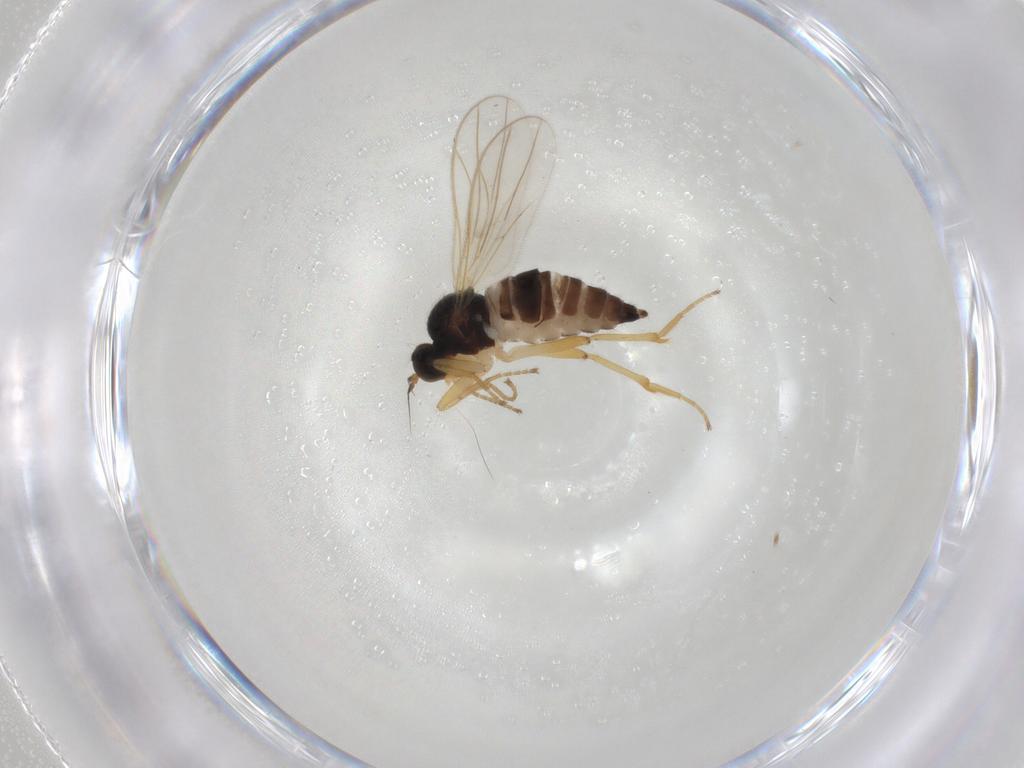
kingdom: Animalia
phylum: Arthropoda
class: Insecta
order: Diptera
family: Hybotidae
